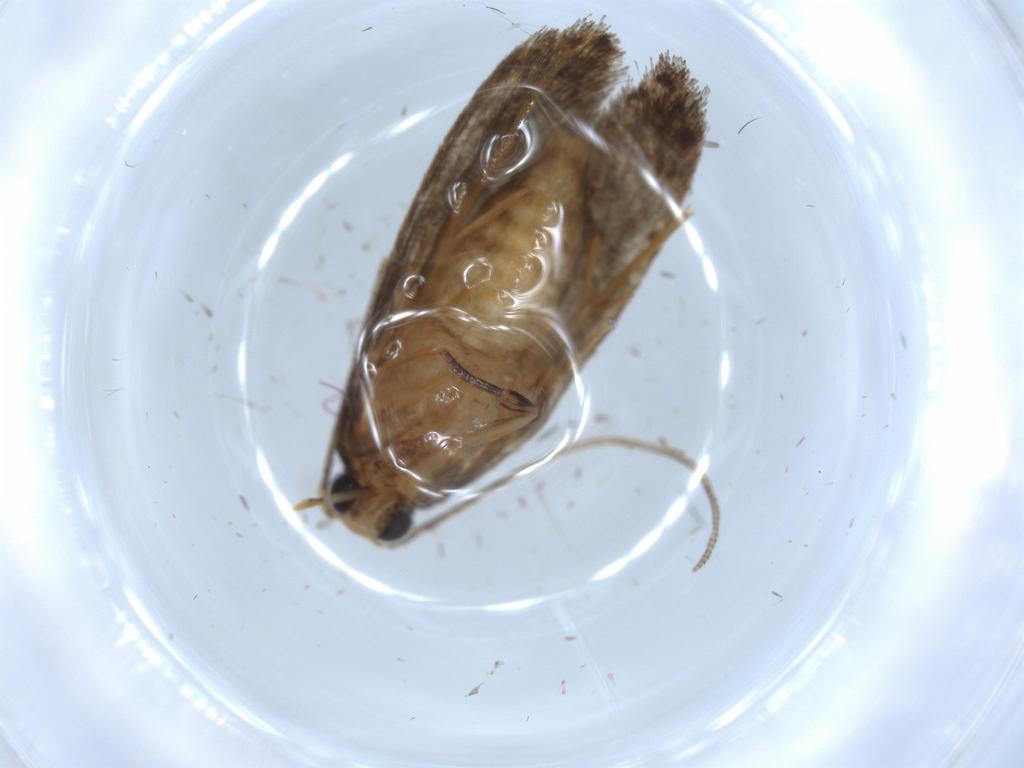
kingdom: Animalia
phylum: Arthropoda
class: Insecta
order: Lepidoptera
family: Tineidae
